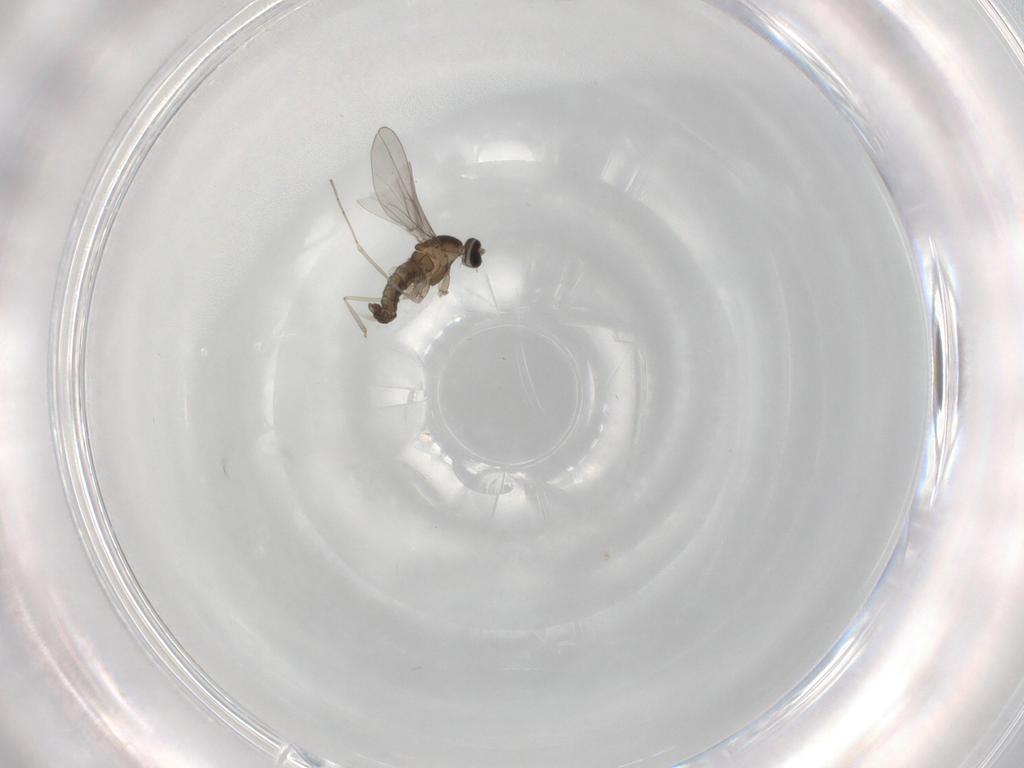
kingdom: Animalia
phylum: Arthropoda
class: Insecta
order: Diptera
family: Cecidomyiidae
